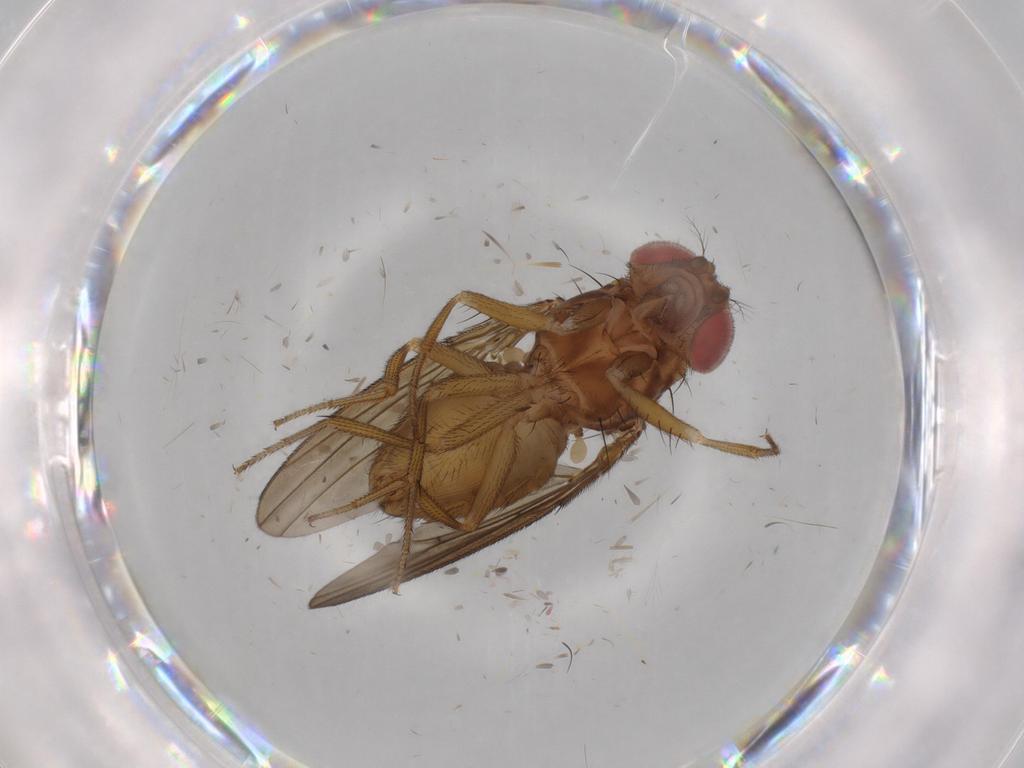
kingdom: Animalia
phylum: Arthropoda
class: Insecta
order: Diptera
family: Drosophilidae
